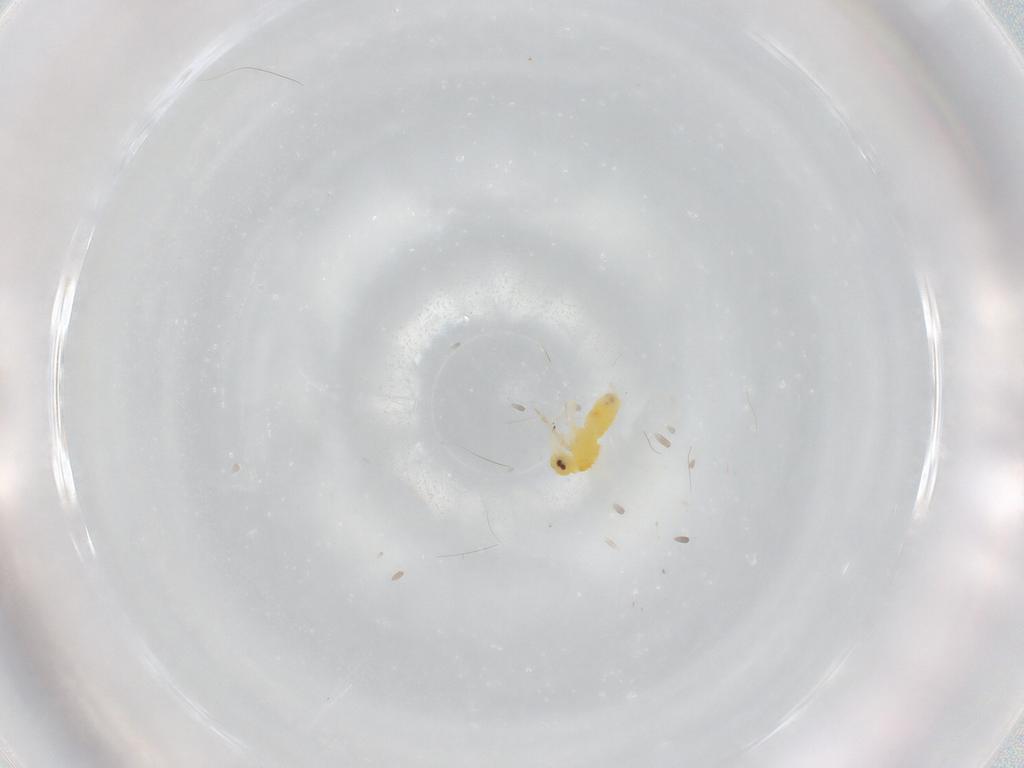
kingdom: Animalia
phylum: Arthropoda
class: Insecta
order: Hemiptera
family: Aleyrodidae
